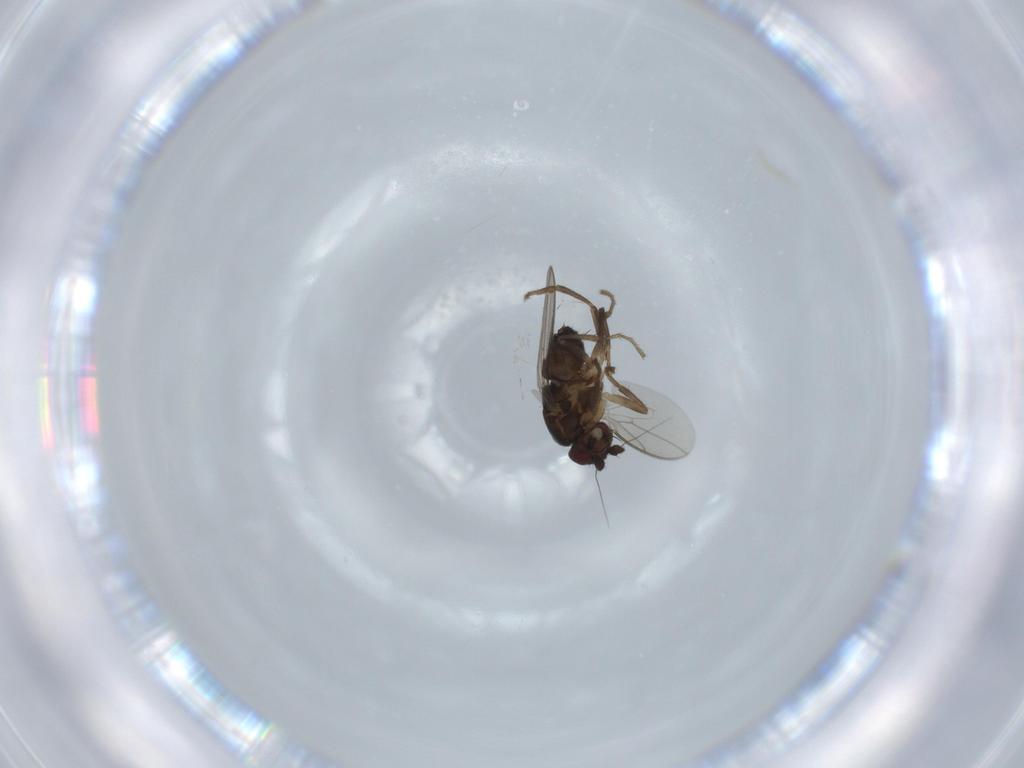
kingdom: Animalia
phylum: Arthropoda
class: Insecta
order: Diptera
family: Sphaeroceridae
